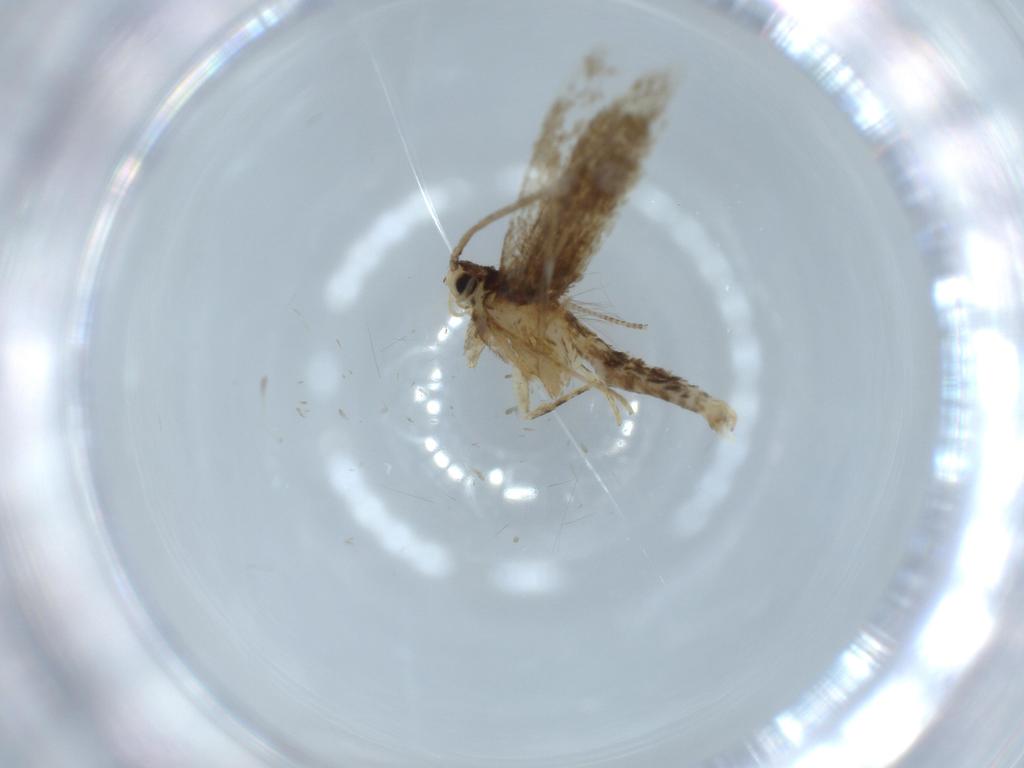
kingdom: Animalia
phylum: Arthropoda
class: Insecta
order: Lepidoptera
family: Tineidae
